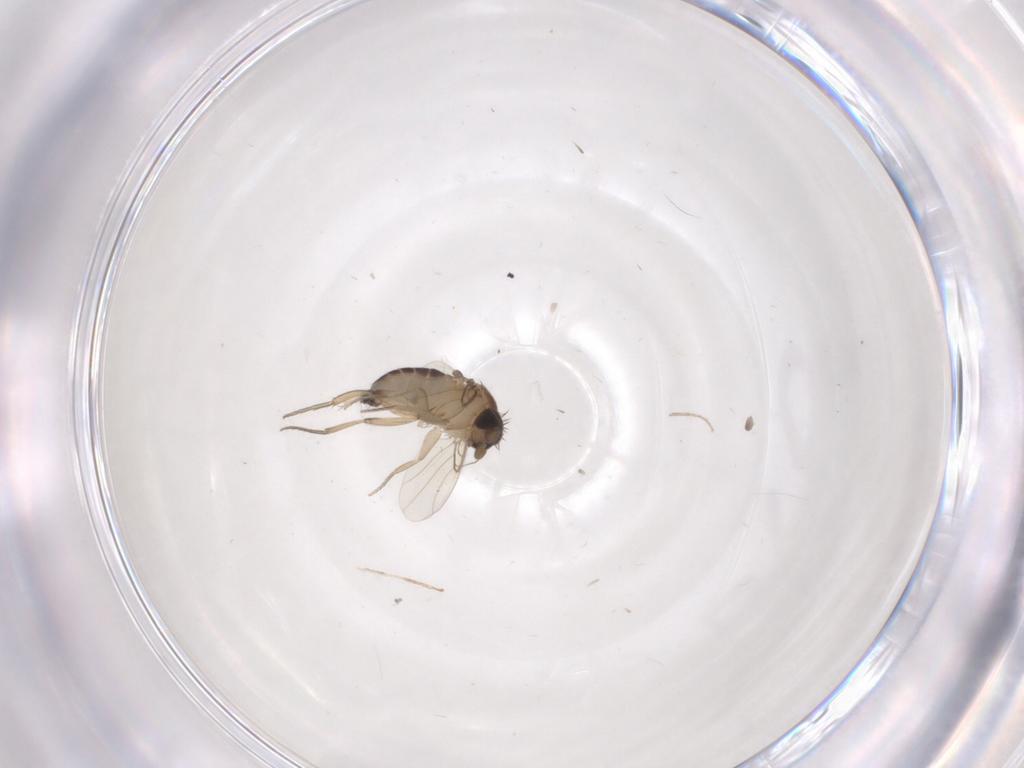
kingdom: Animalia
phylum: Arthropoda
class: Insecta
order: Diptera
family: Phoridae
